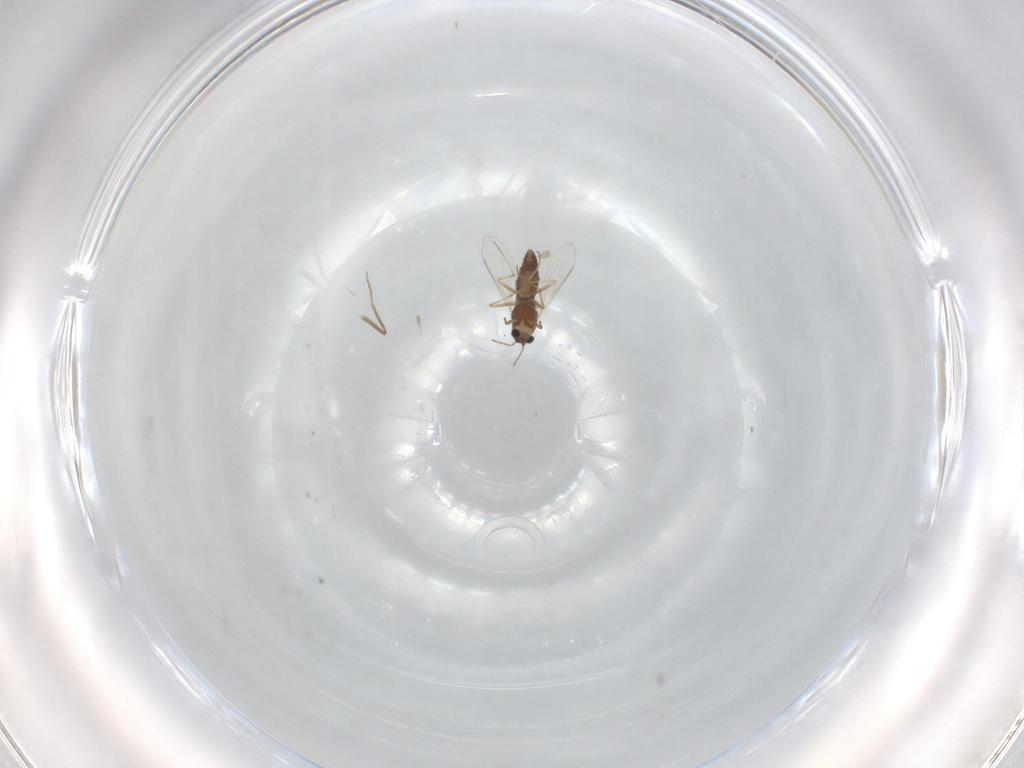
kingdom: Animalia
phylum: Arthropoda
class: Insecta
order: Diptera
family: Chironomidae
